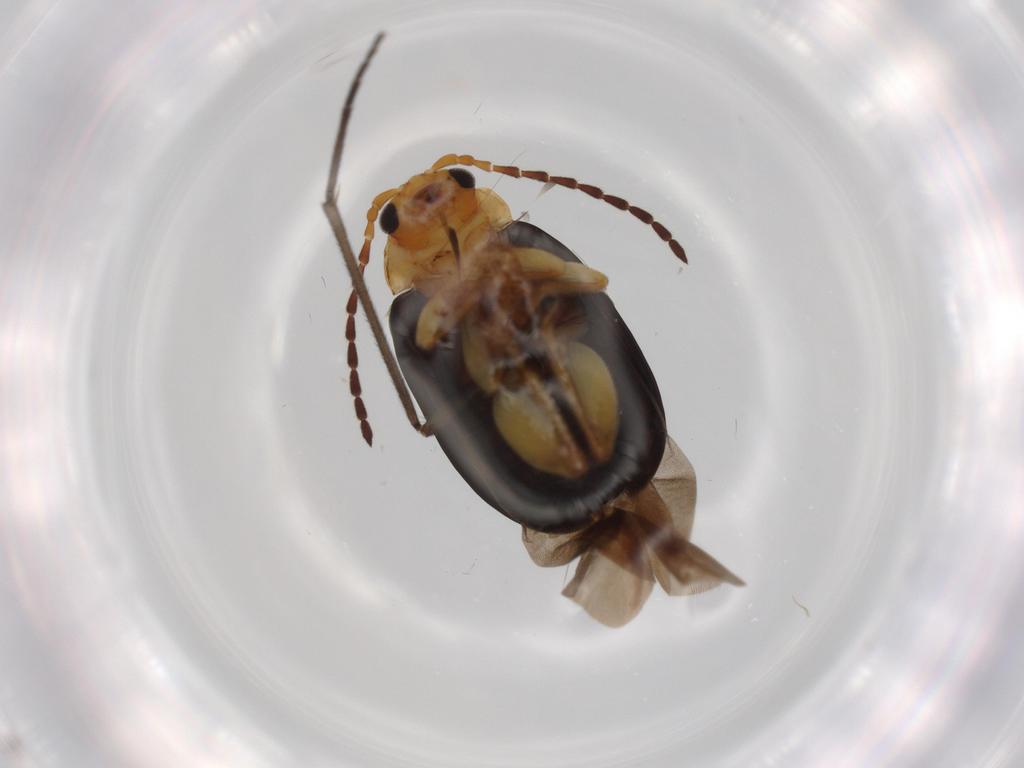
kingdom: Animalia
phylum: Arthropoda
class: Insecta
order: Coleoptera
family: Chrysomelidae
